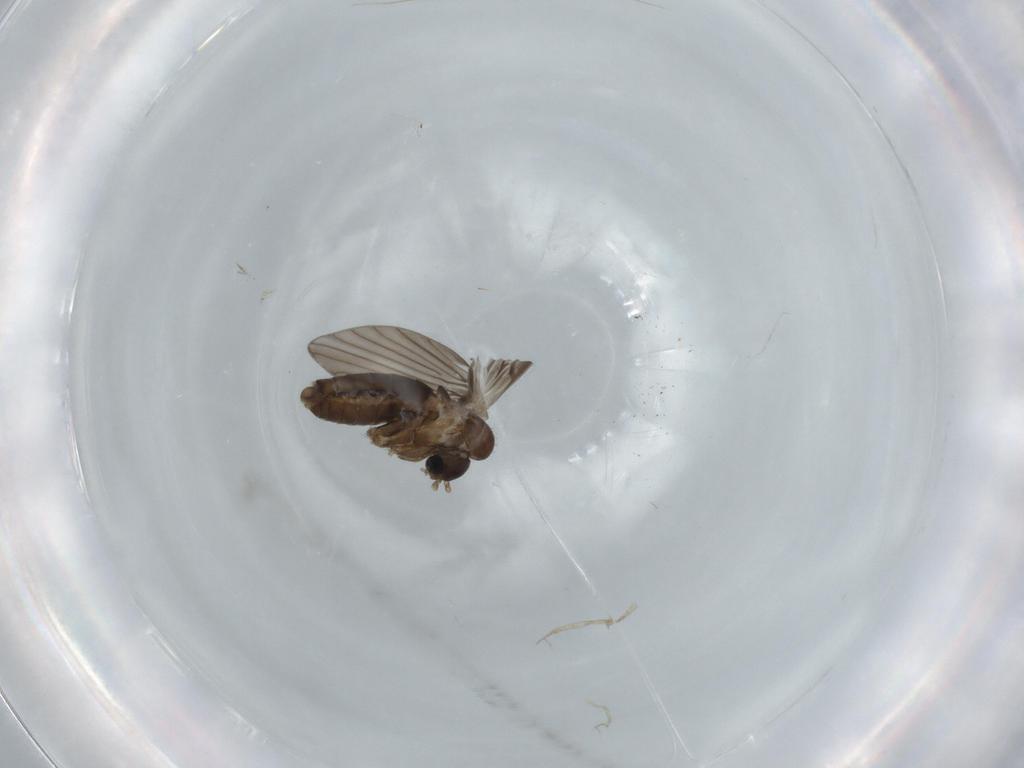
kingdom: Animalia
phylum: Arthropoda
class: Insecta
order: Diptera
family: Psychodidae
